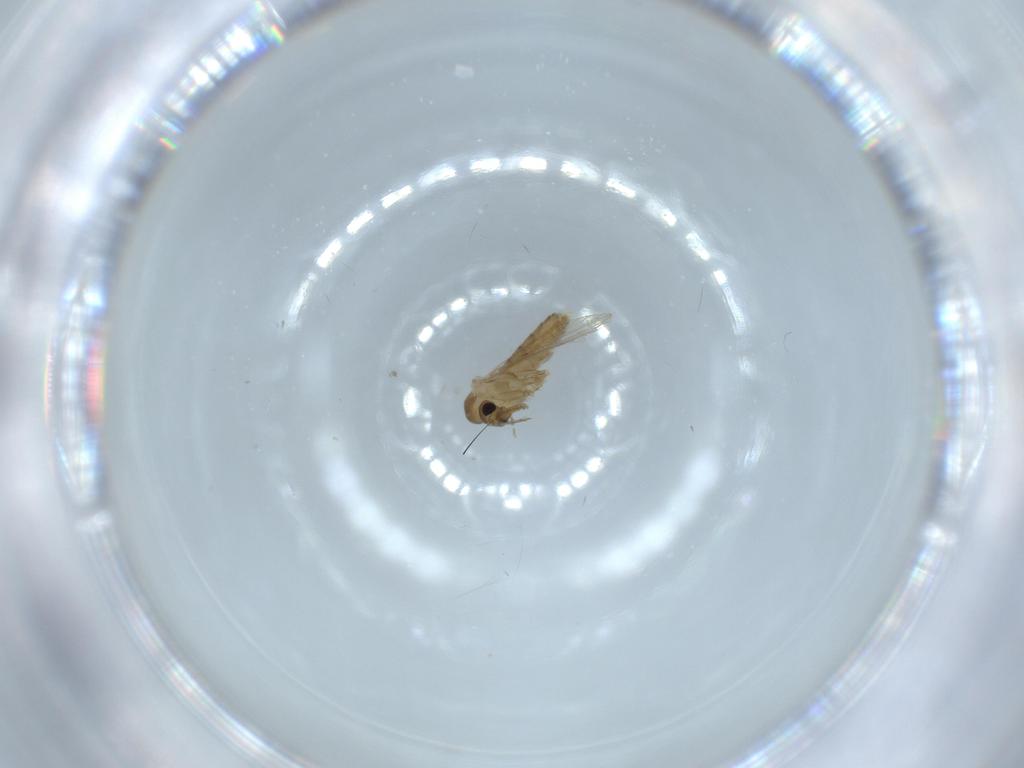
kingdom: Animalia
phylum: Arthropoda
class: Insecta
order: Diptera
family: Psychodidae
